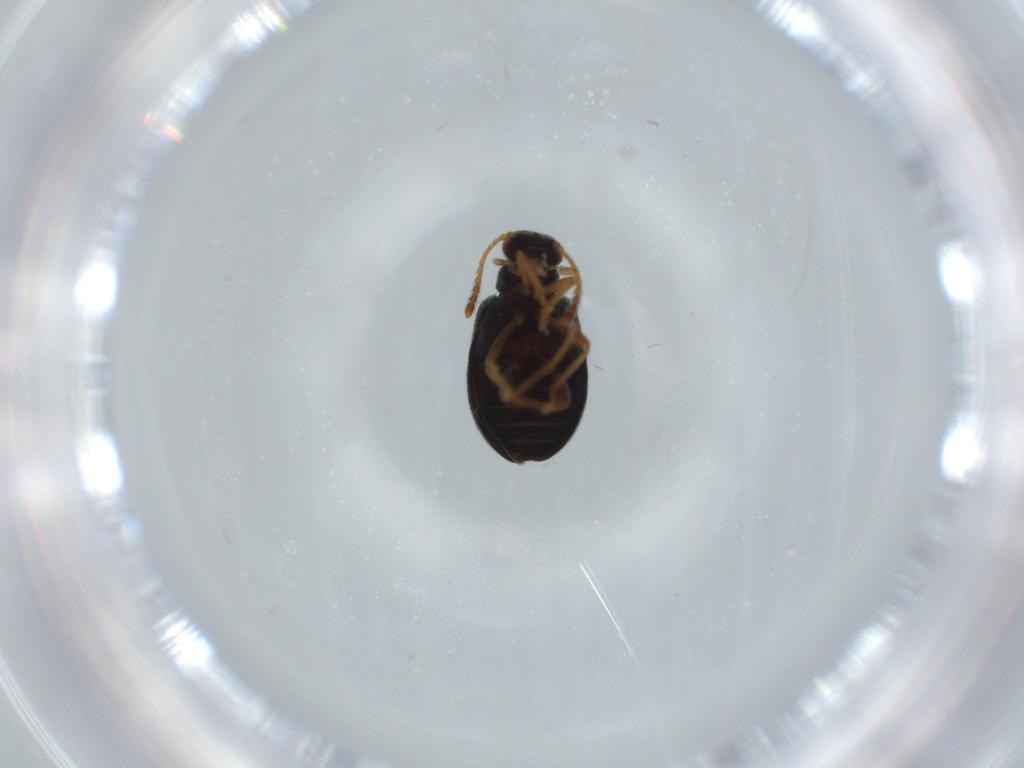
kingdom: Animalia
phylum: Arthropoda
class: Insecta
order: Coleoptera
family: Aderidae
